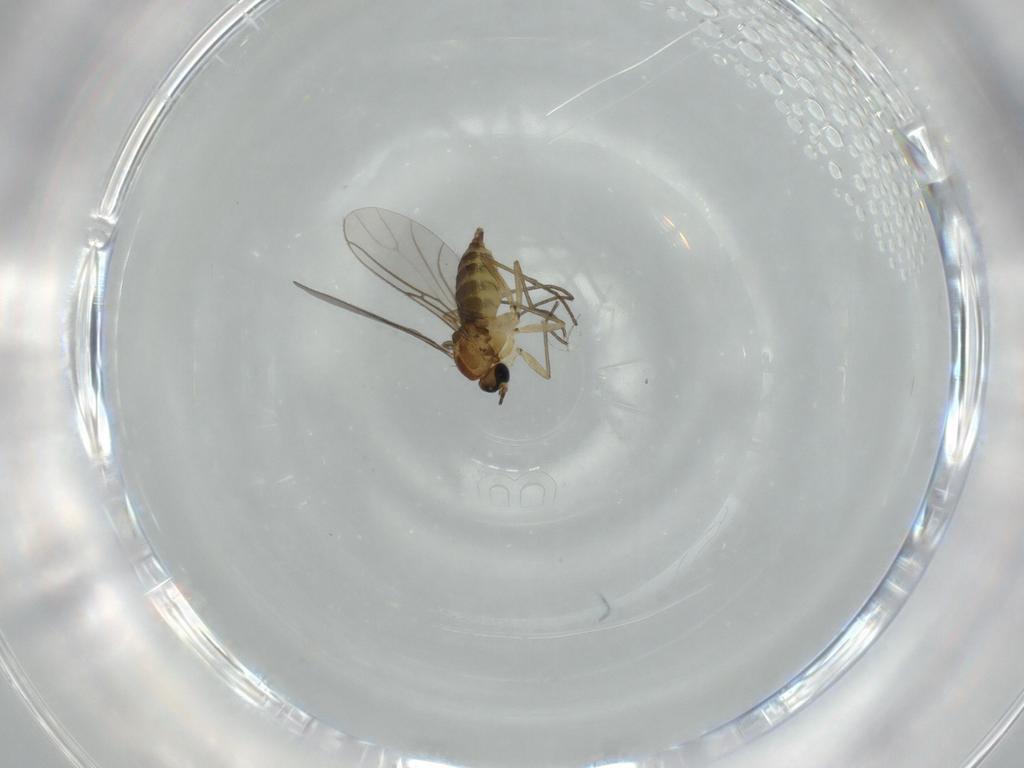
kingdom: Animalia
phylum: Arthropoda
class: Insecta
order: Diptera
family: Sciaridae
